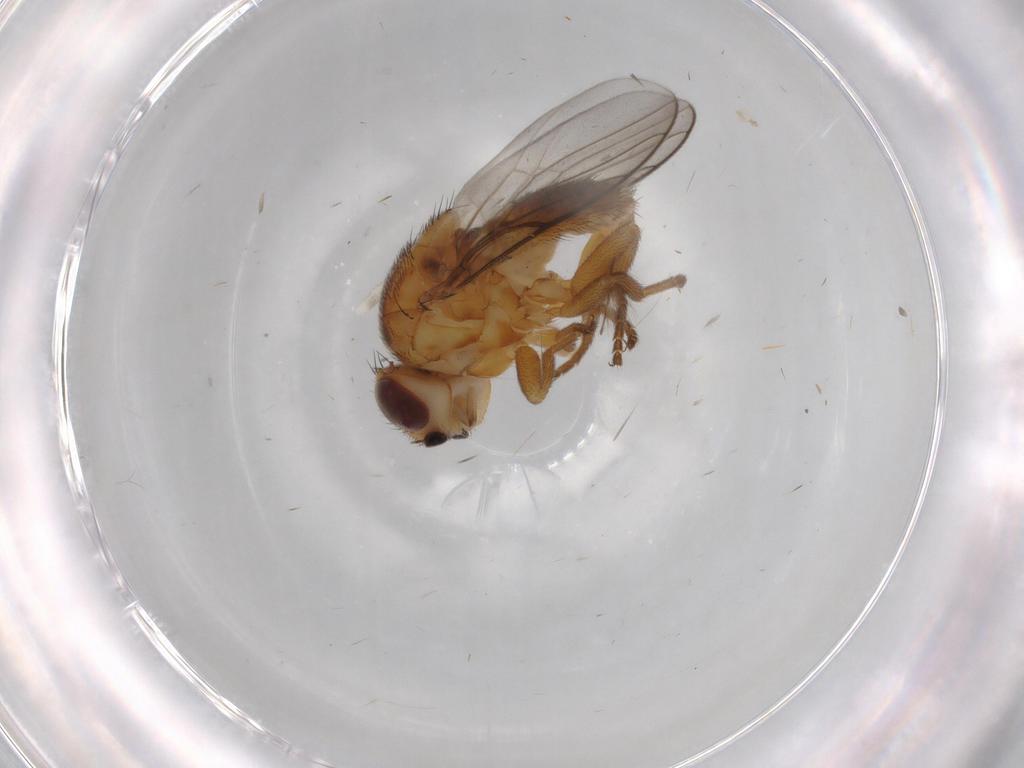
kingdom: Animalia
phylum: Arthropoda
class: Insecta
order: Diptera
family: Chloropidae
